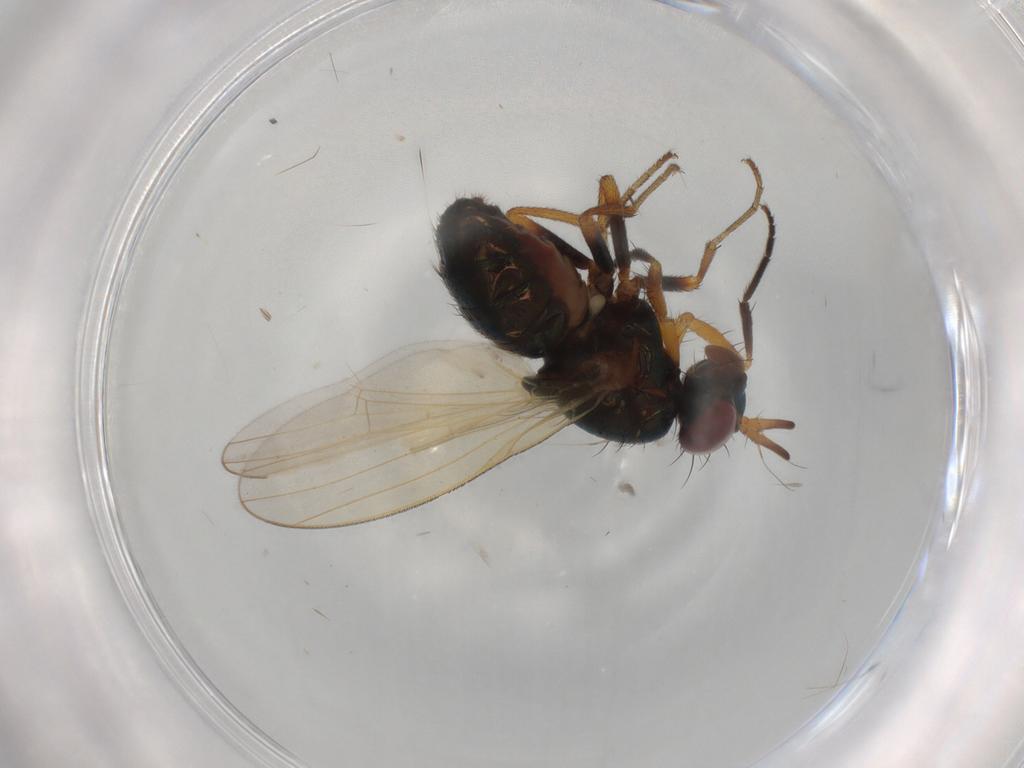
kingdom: Animalia
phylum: Arthropoda
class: Insecta
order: Diptera
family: Lauxaniidae
